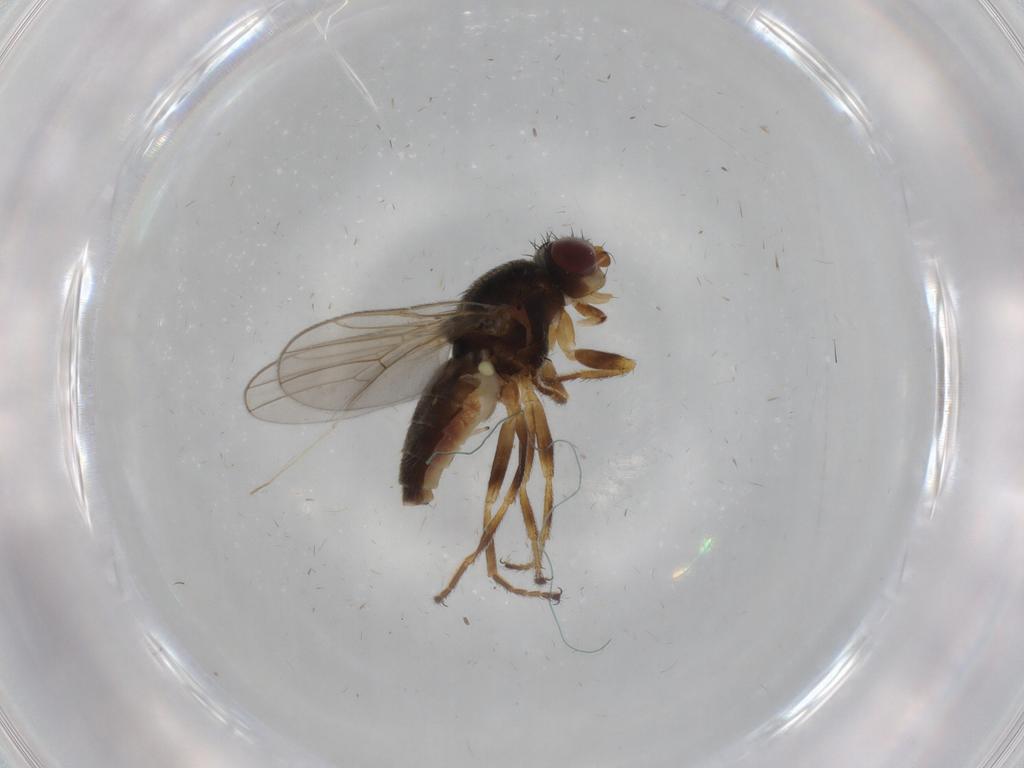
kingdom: Animalia
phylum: Arthropoda
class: Insecta
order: Diptera
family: Chloropidae
